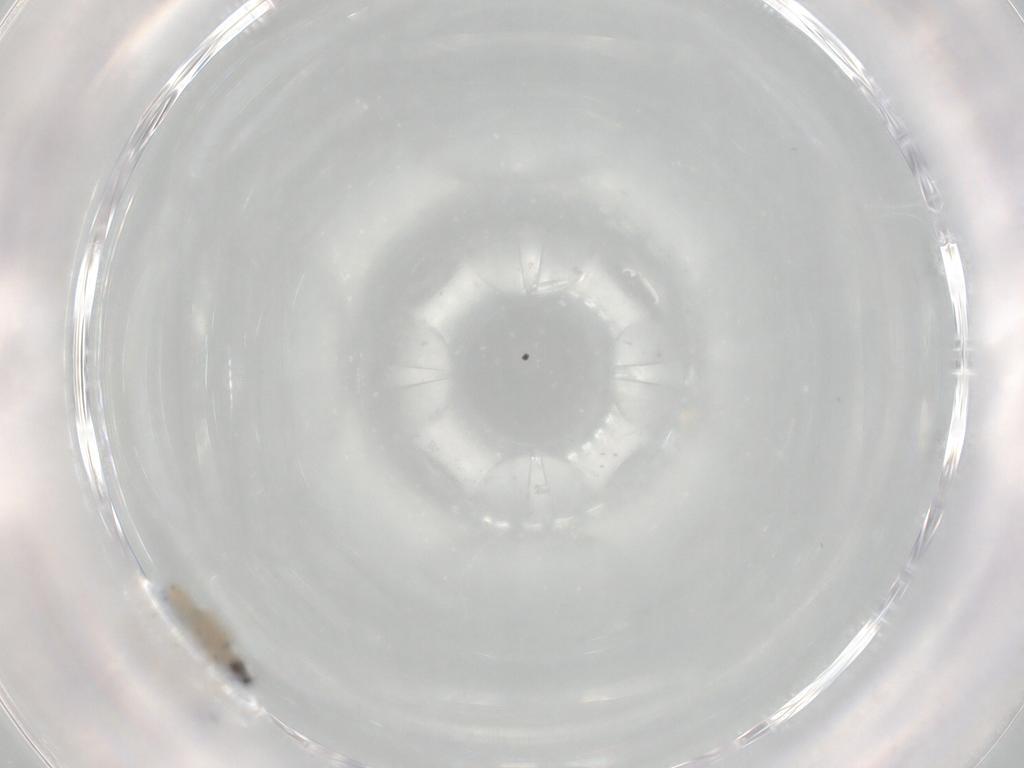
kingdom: Animalia
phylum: Arthropoda
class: Insecta
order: Diptera
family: Cecidomyiidae
